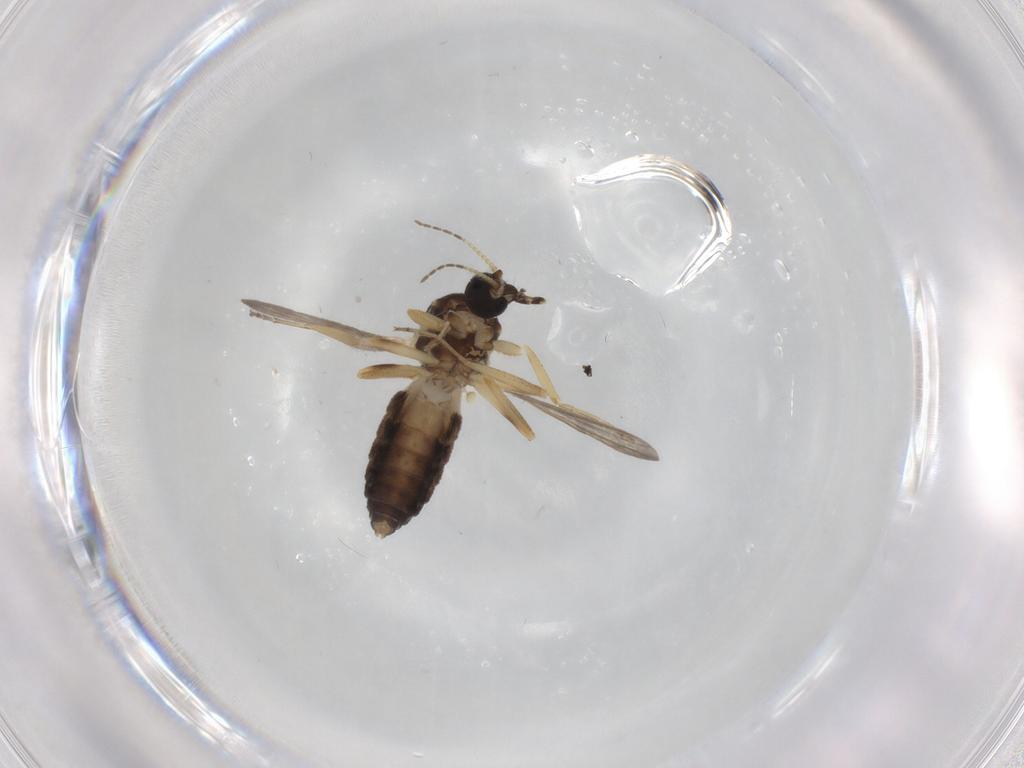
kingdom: Animalia
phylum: Arthropoda
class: Insecta
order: Diptera
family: Ceratopogonidae
